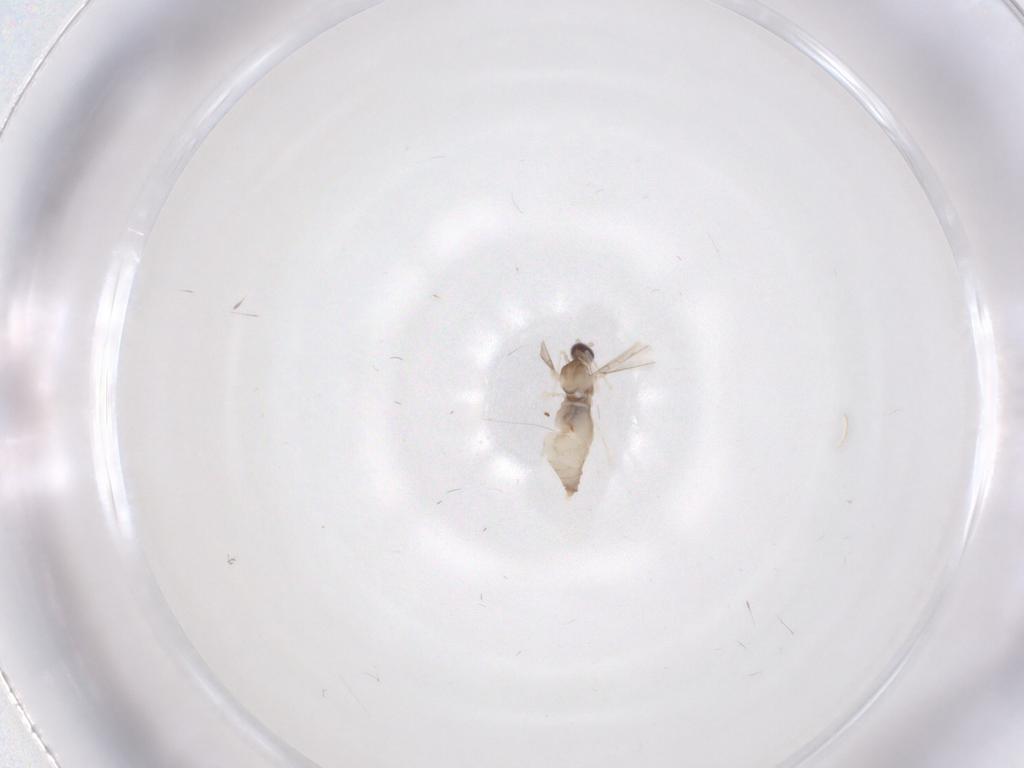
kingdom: Animalia
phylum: Arthropoda
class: Insecta
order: Diptera
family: Cecidomyiidae
